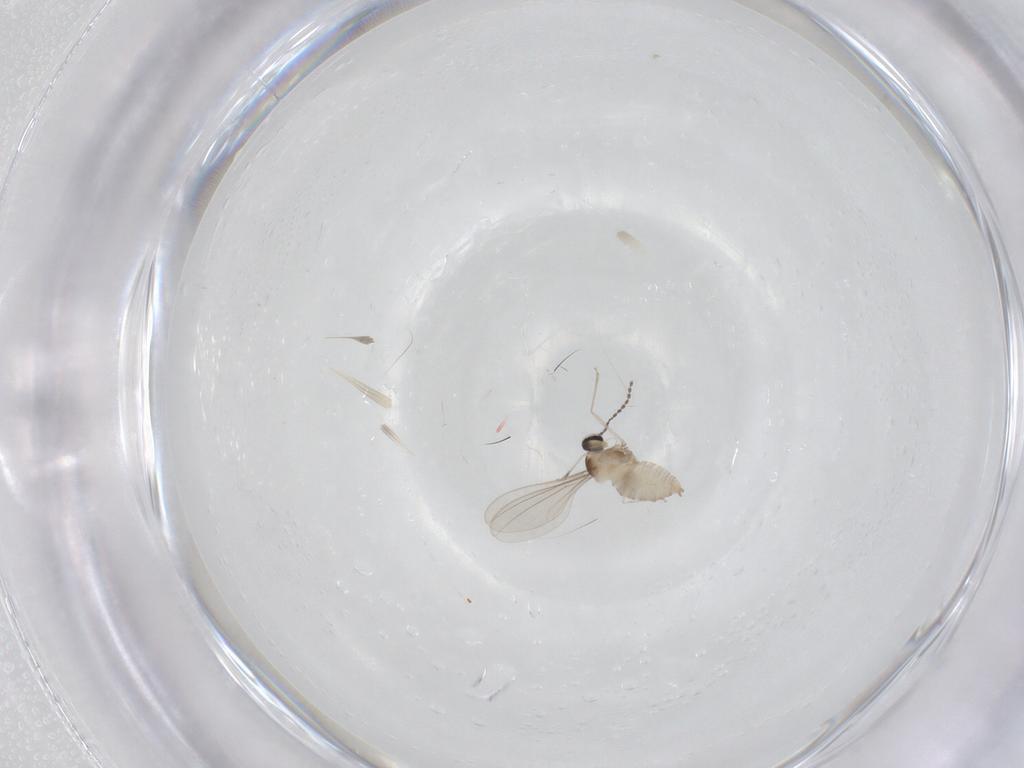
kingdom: Animalia
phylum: Arthropoda
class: Insecta
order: Diptera
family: Cecidomyiidae
